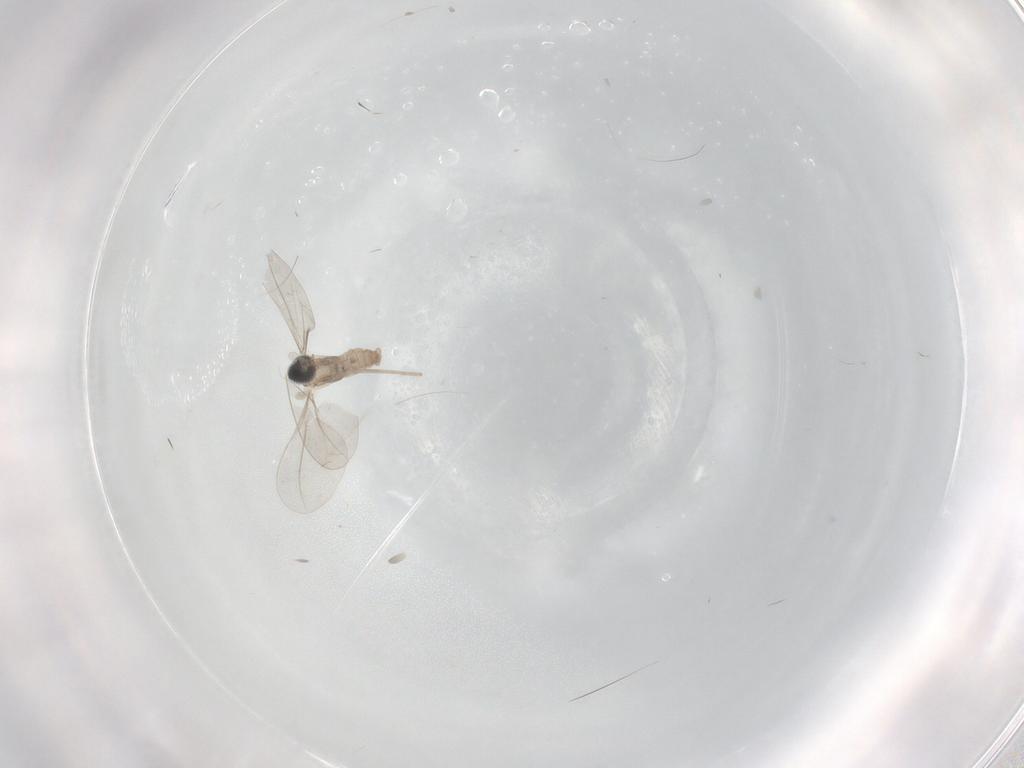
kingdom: Animalia
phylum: Arthropoda
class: Insecta
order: Diptera
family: Cecidomyiidae
